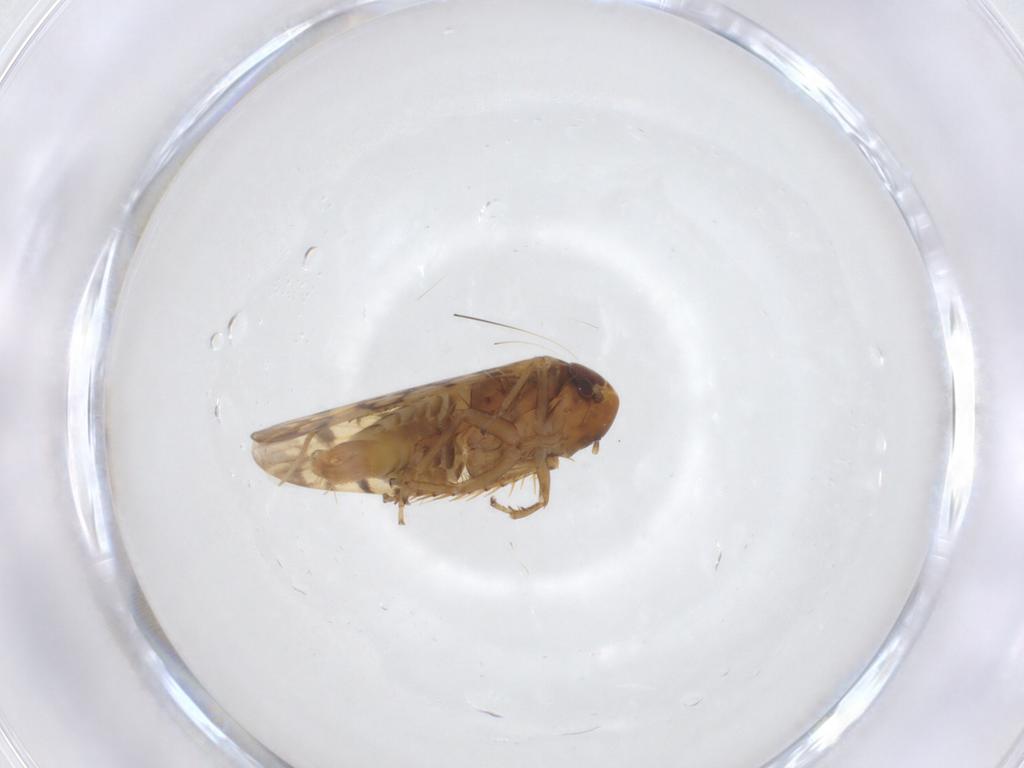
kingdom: Animalia
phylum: Arthropoda
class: Insecta
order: Hemiptera
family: Cicadellidae
